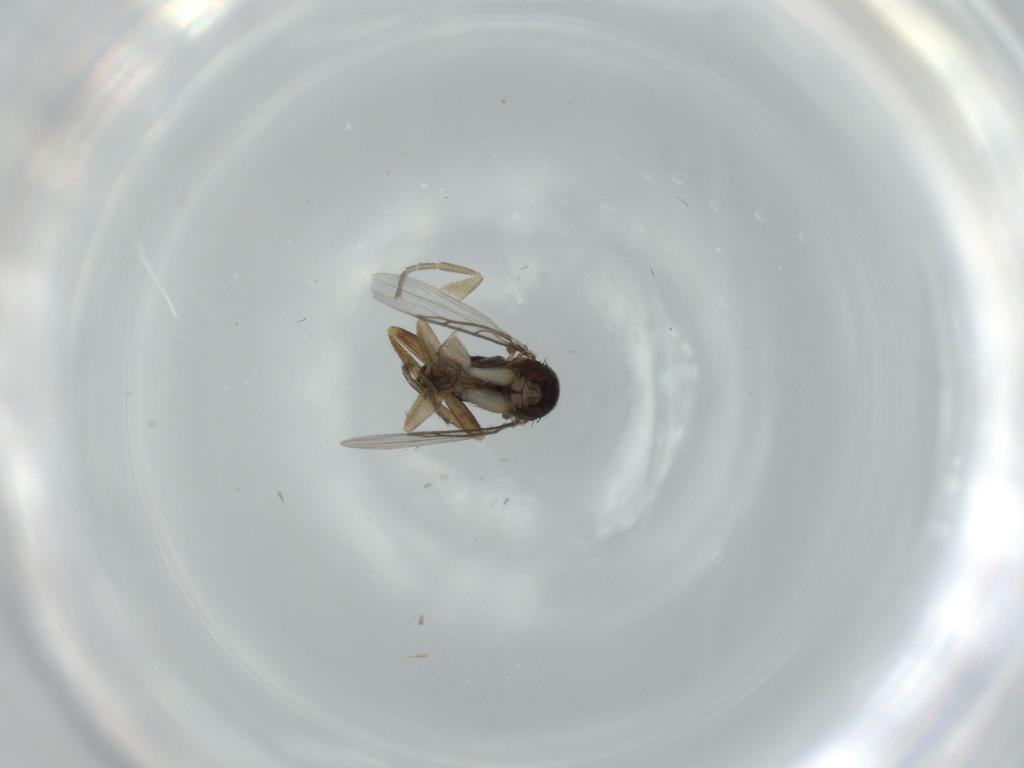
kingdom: Animalia
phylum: Arthropoda
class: Insecta
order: Diptera
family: Phoridae
